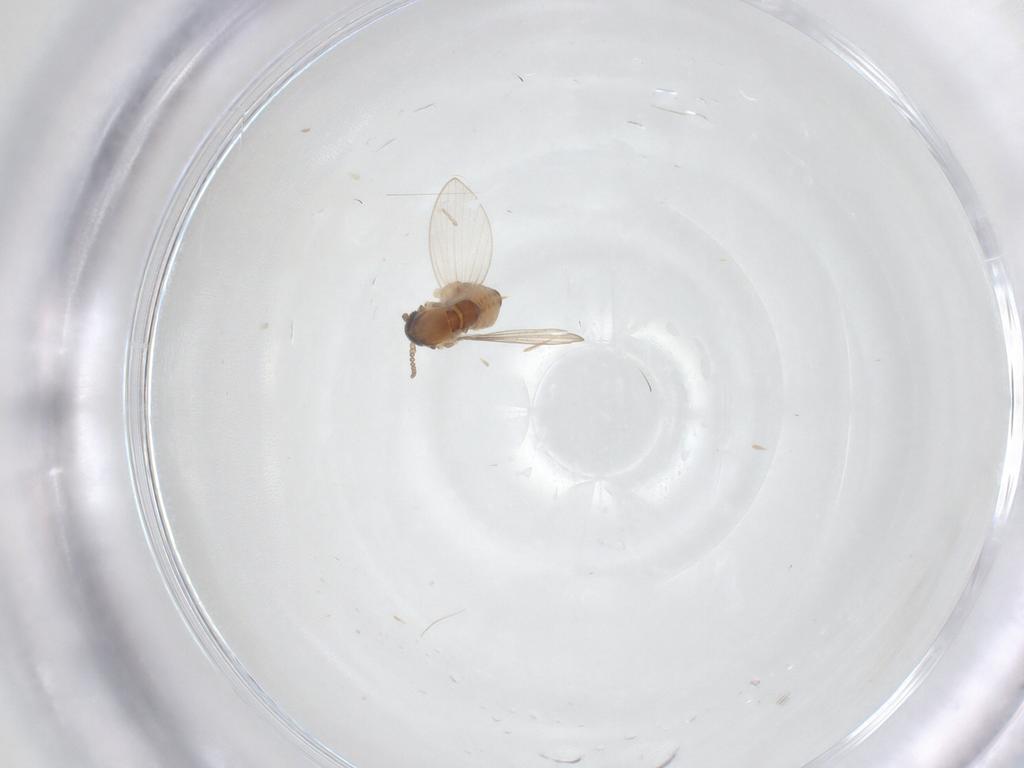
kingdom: Animalia
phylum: Arthropoda
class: Insecta
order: Diptera
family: Psychodidae
